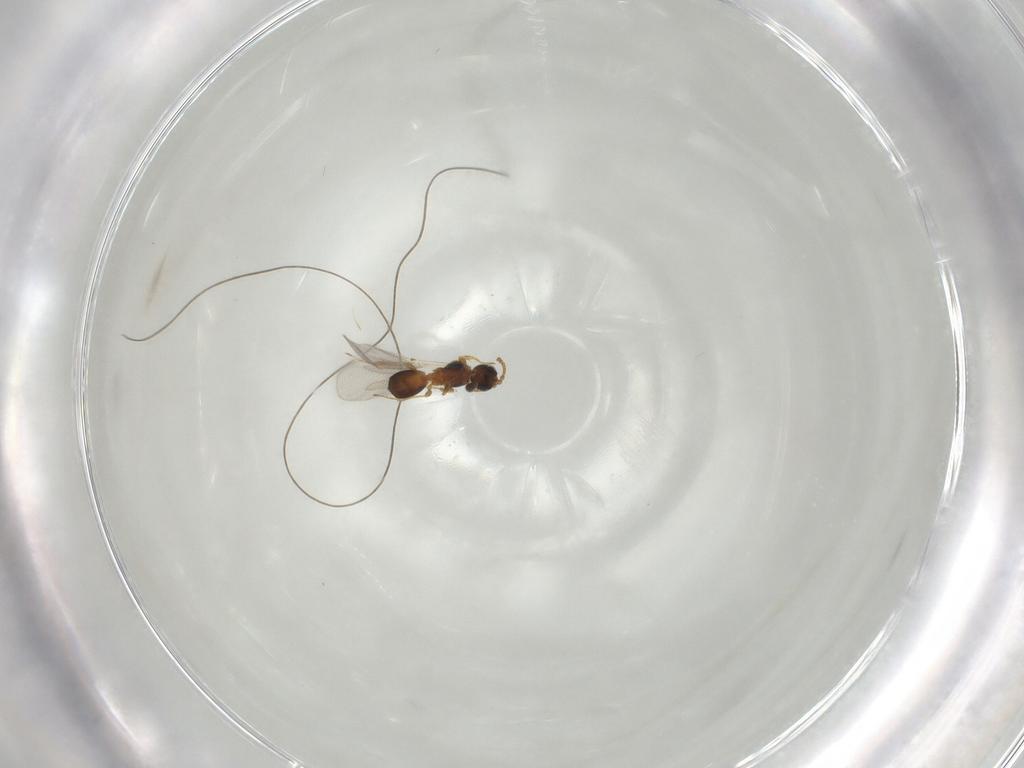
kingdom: Animalia
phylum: Arthropoda
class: Insecta
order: Hymenoptera
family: Diapriidae
